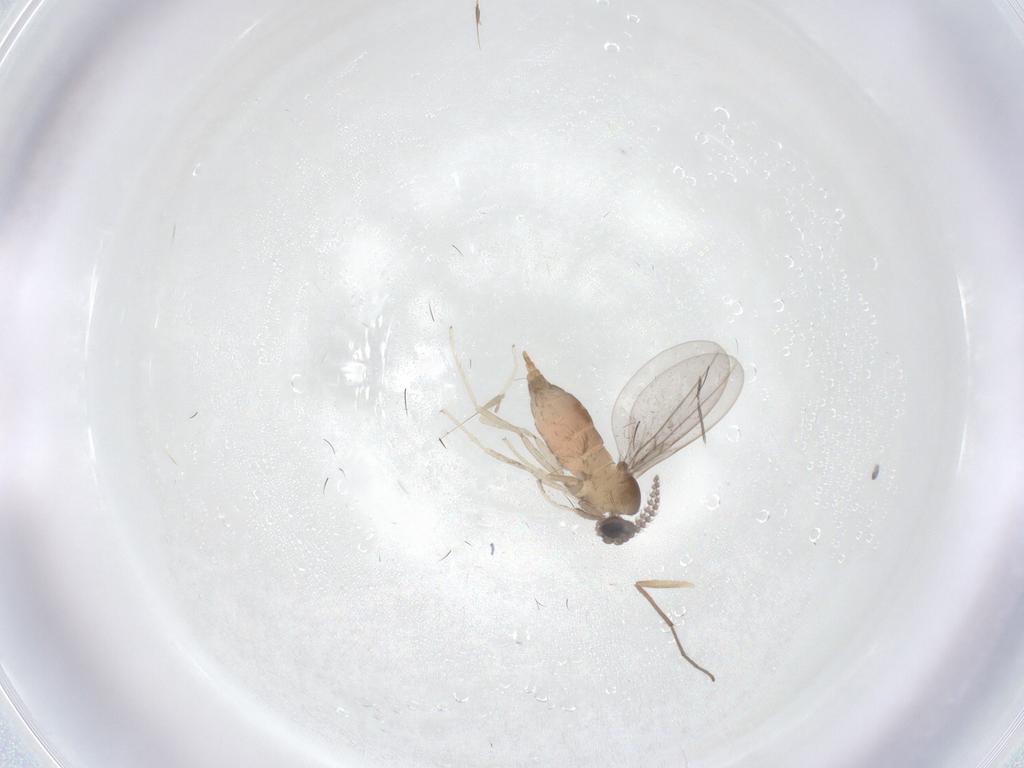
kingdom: Animalia
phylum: Arthropoda
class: Insecta
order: Diptera
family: Cecidomyiidae
